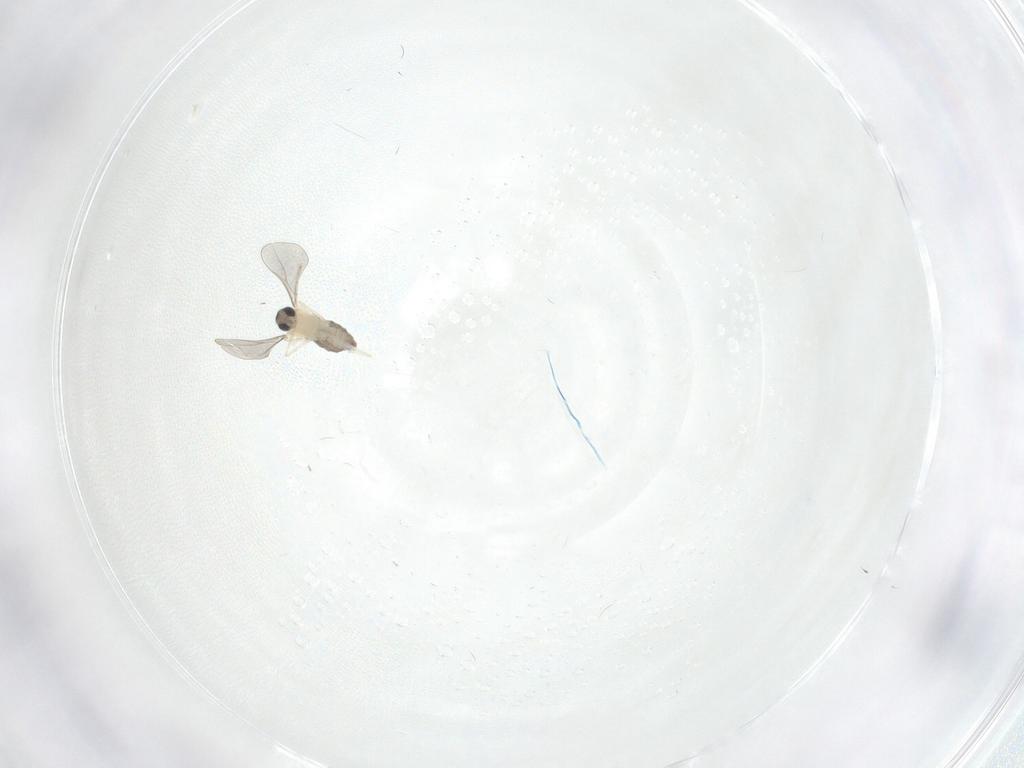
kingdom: Animalia
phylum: Arthropoda
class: Insecta
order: Diptera
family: Cecidomyiidae
